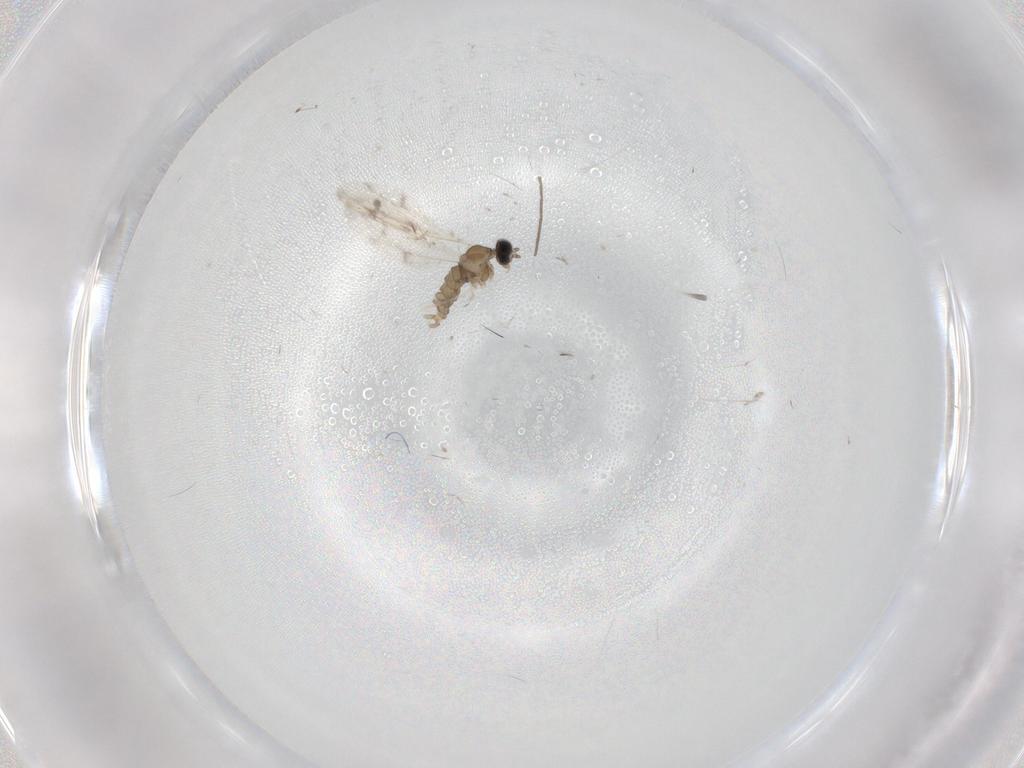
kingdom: Animalia
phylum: Arthropoda
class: Insecta
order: Diptera
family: Cecidomyiidae
